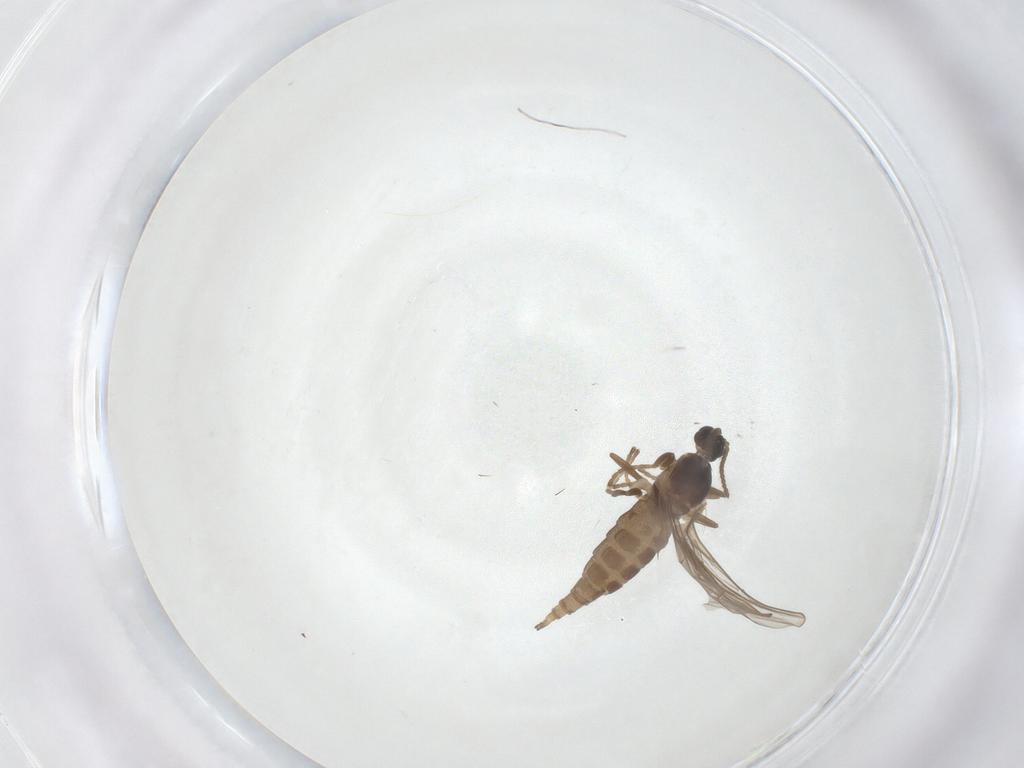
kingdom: Animalia
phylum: Arthropoda
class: Insecta
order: Diptera
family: Cecidomyiidae
